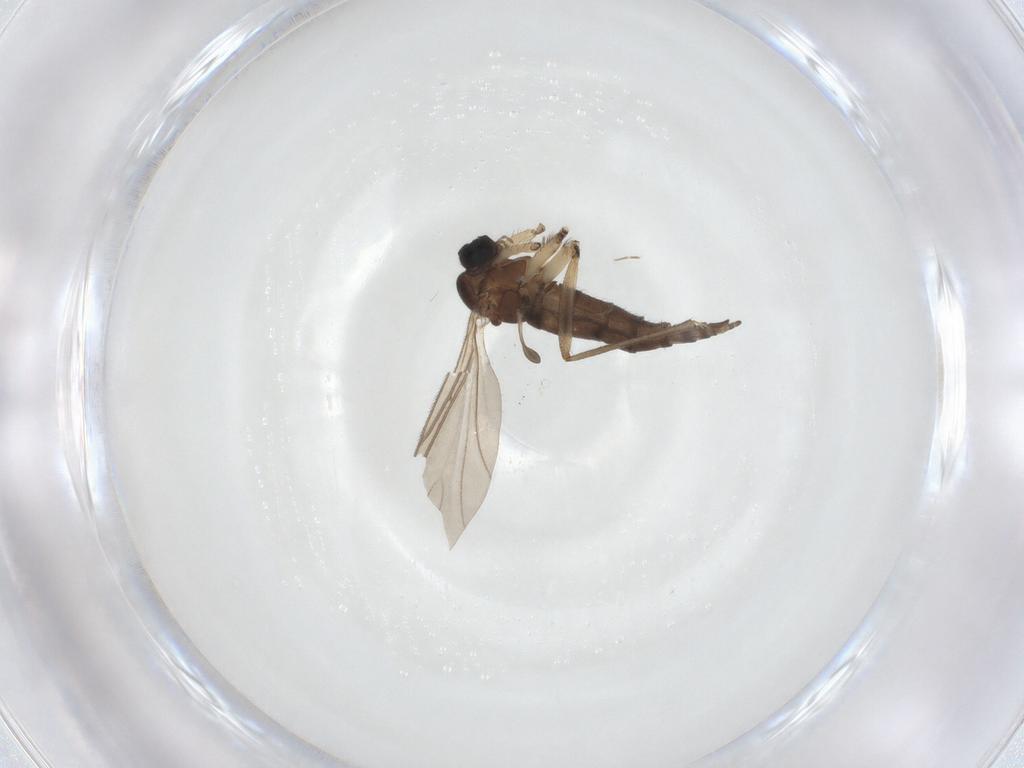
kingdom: Animalia
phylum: Arthropoda
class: Insecta
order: Diptera
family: Sciaridae
